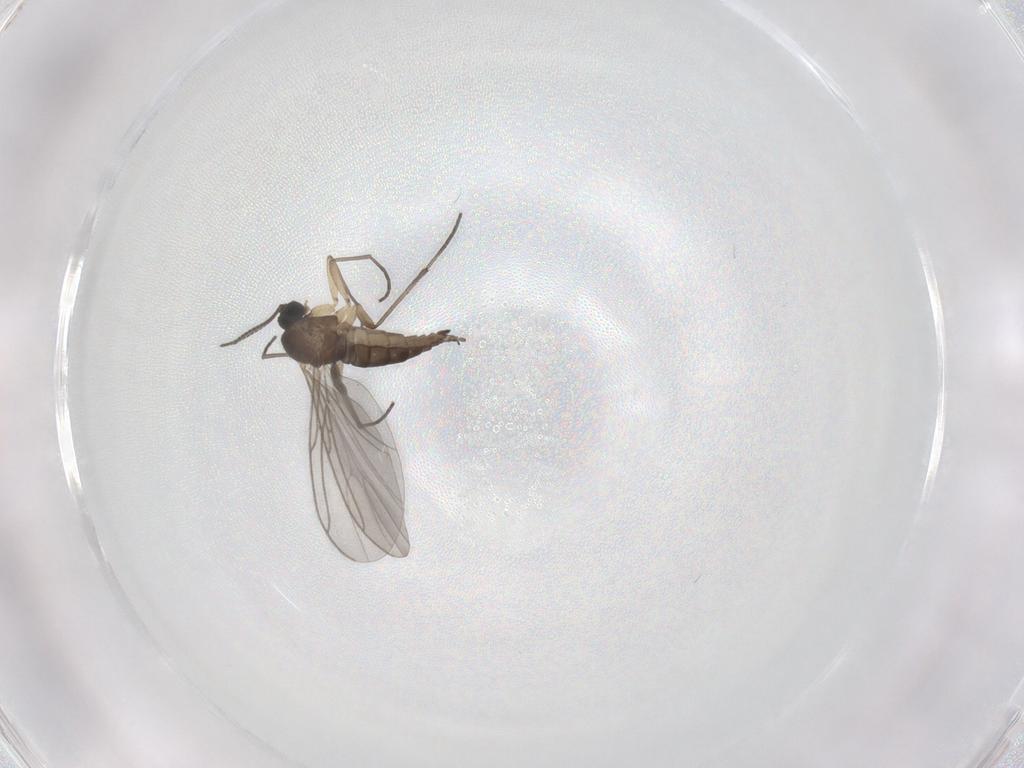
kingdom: Animalia
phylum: Arthropoda
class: Insecta
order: Diptera
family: Sciaridae
